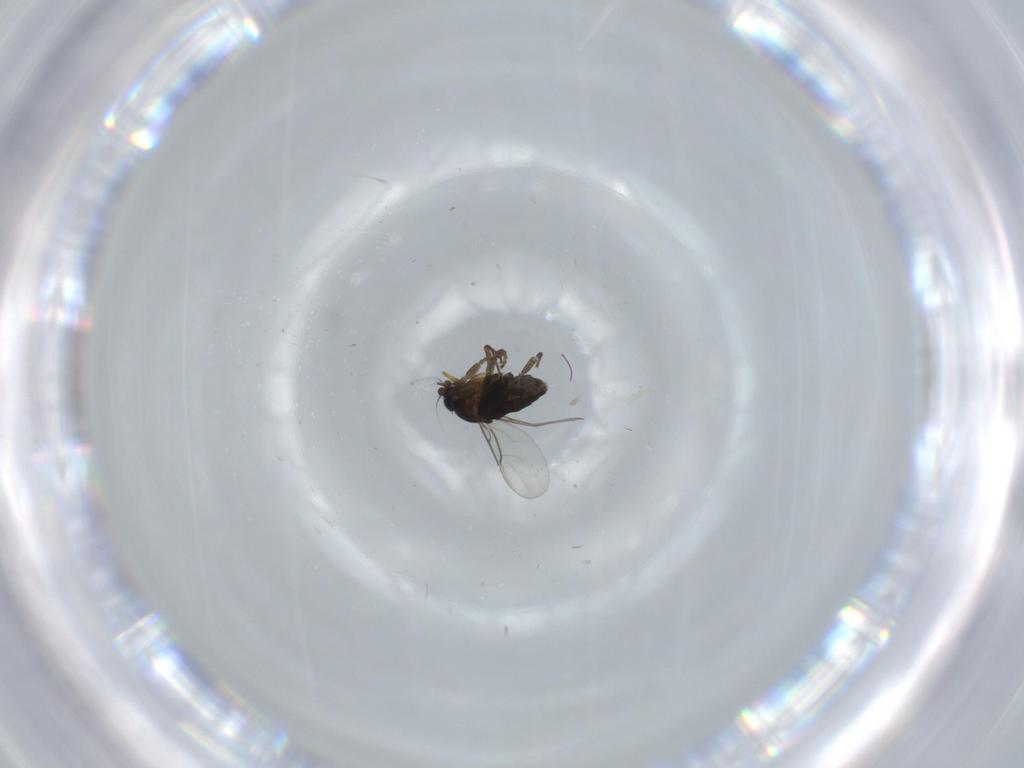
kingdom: Animalia
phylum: Arthropoda
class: Insecta
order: Diptera
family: Phoridae
